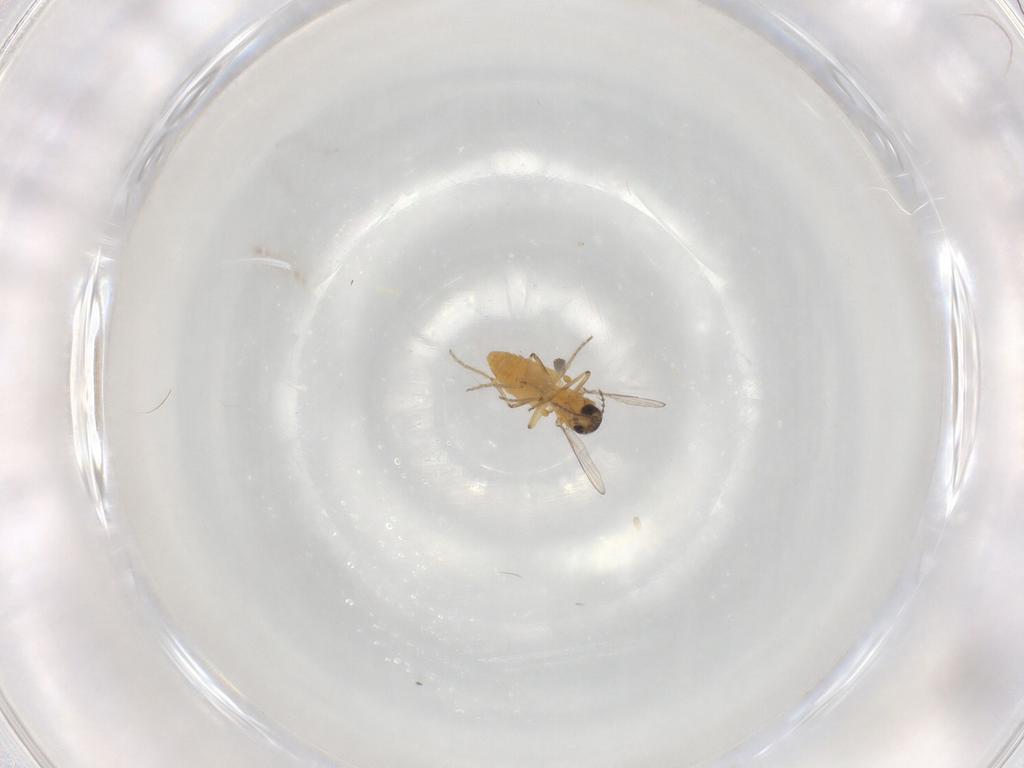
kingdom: Animalia
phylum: Arthropoda
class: Insecta
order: Diptera
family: Ceratopogonidae
